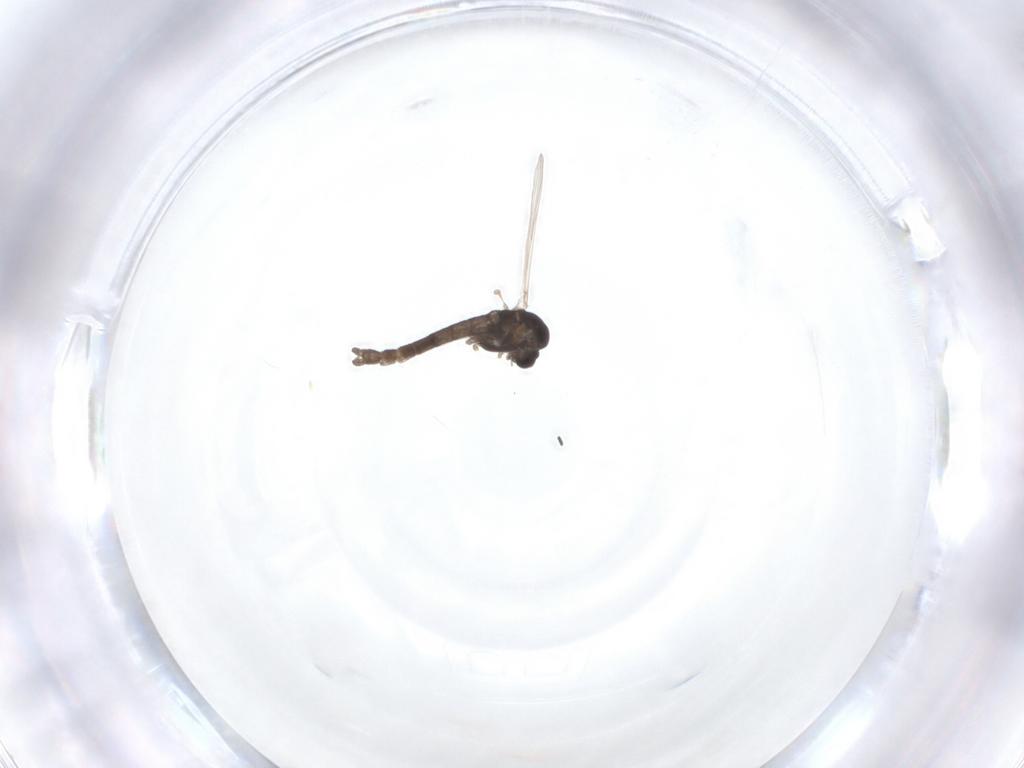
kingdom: Animalia
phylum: Arthropoda
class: Insecta
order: Diptera
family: Chironomidae
